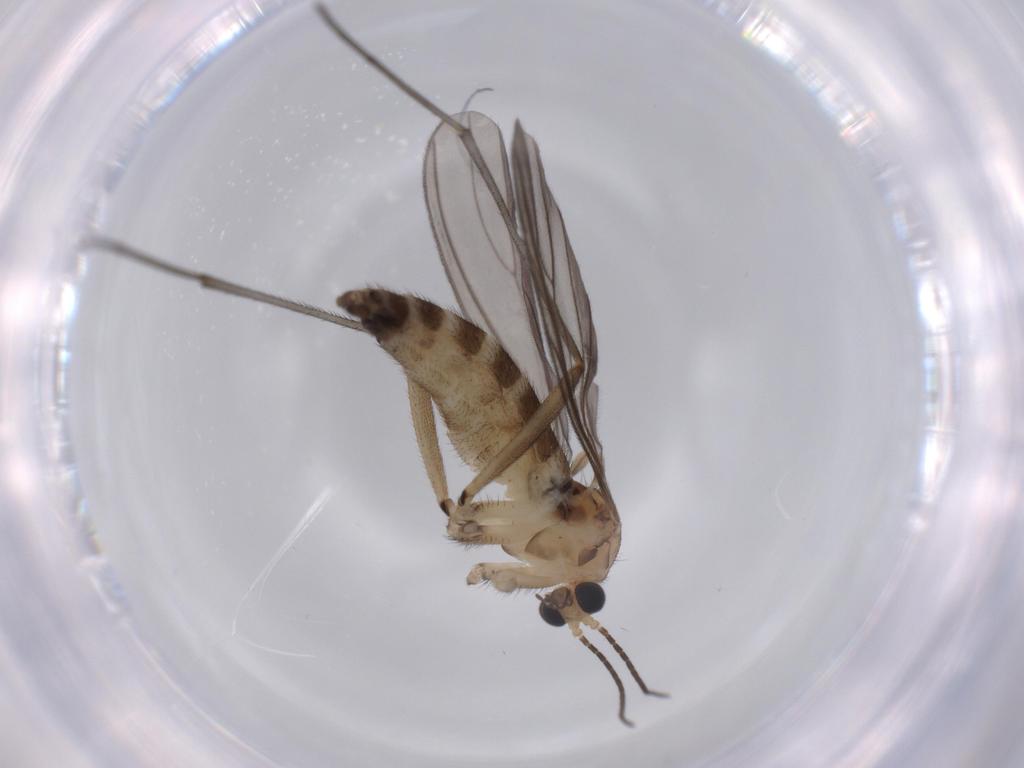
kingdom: Animalia
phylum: Arthropoda
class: Insecta
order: Diptera
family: Sciaridae
